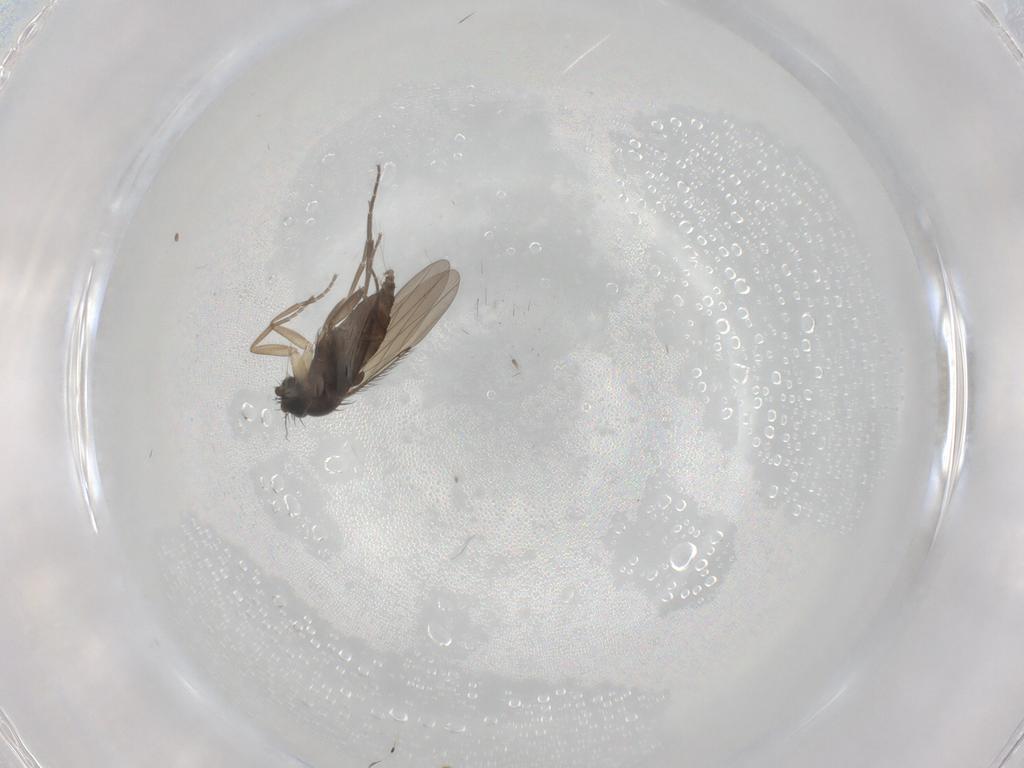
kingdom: Animalia
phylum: Arthropoda
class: Insecta
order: Diptera
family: Phoridae
